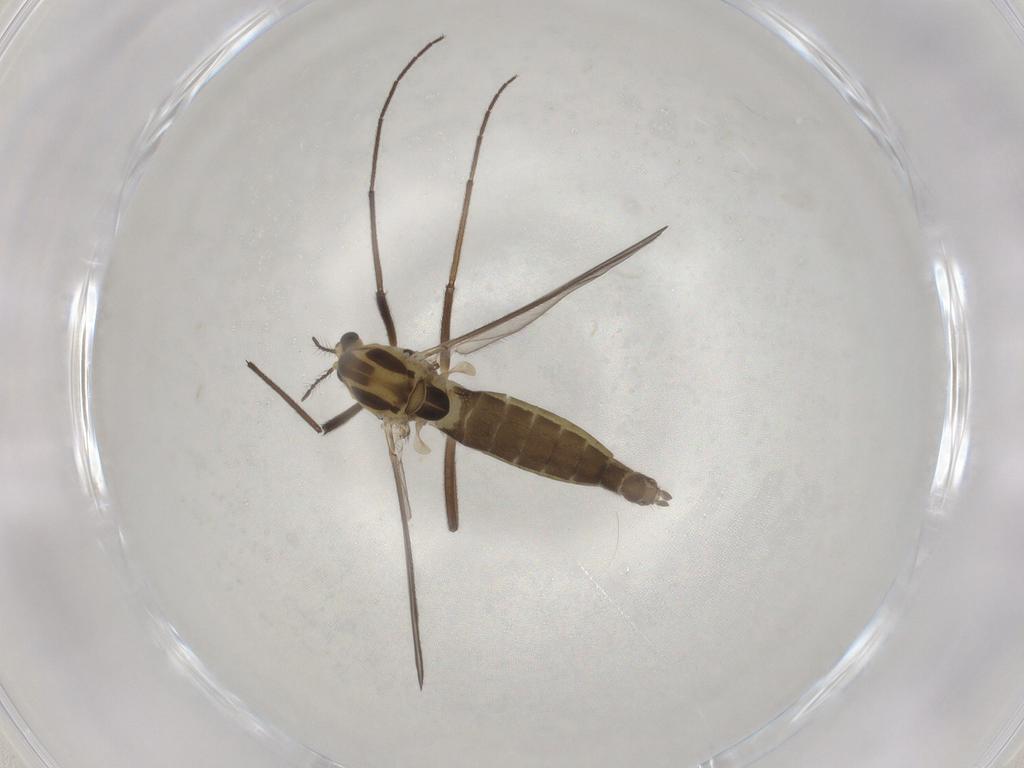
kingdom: Animalia
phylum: Arthropoda
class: Insecta
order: Diptera
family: Chironomidae
